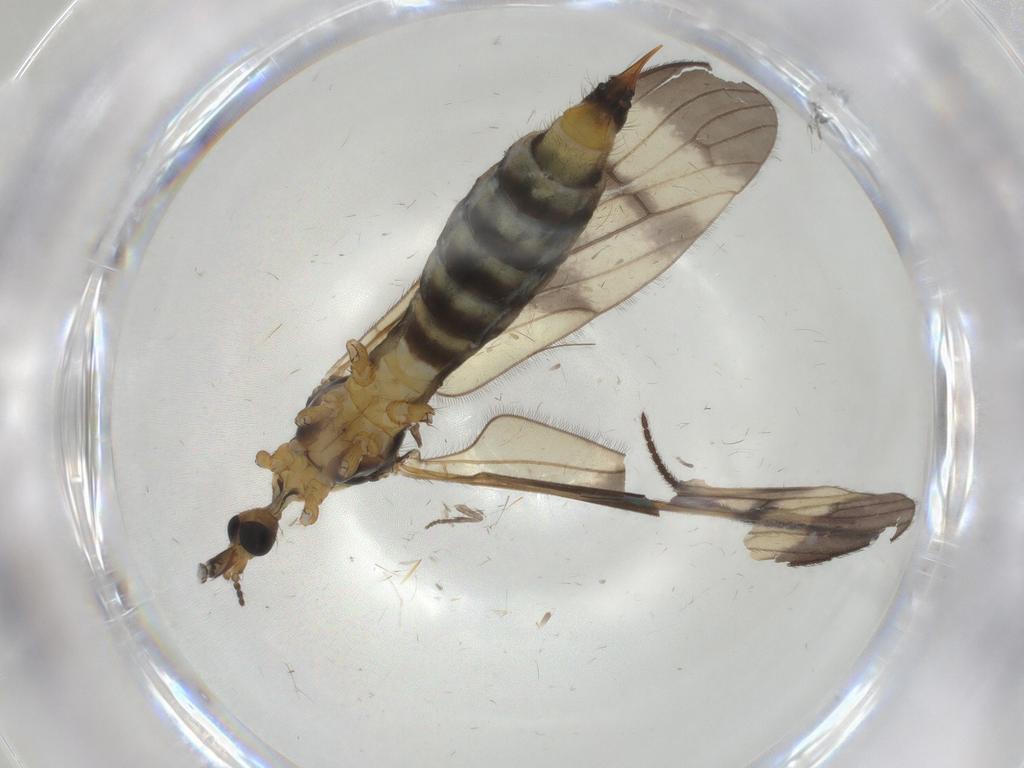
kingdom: Animalia
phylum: Arthropoda
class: Insecta
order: Diptera
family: Limoniidae
